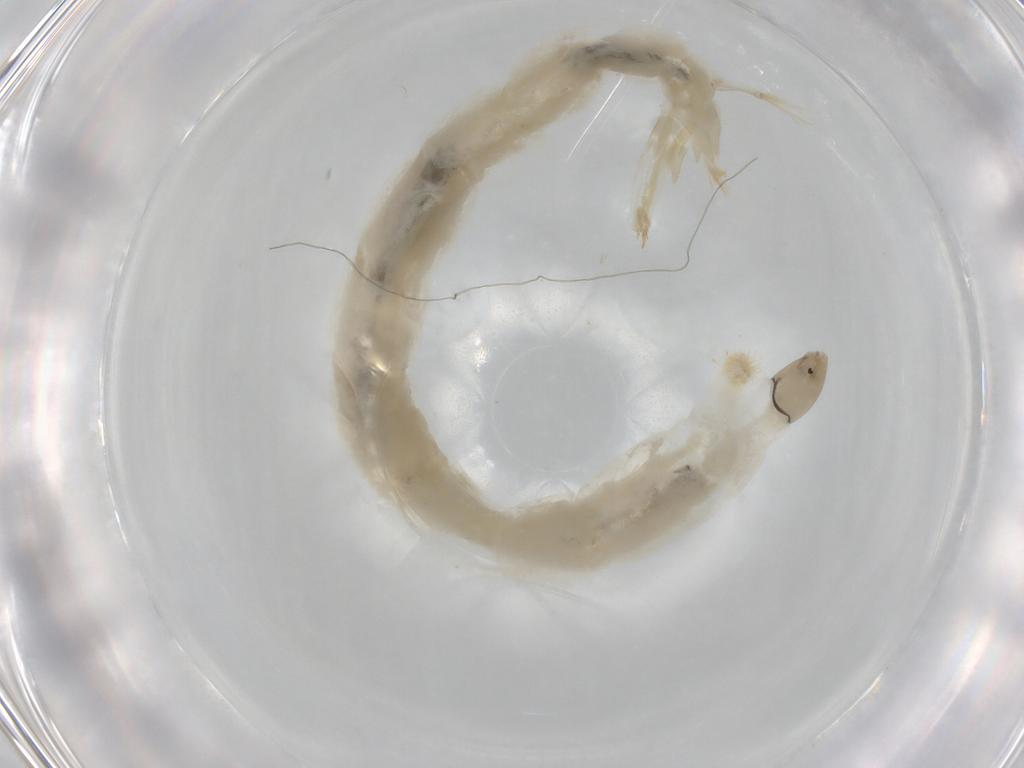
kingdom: Animalia
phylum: Arthropoda
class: Insecta
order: Diptera
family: Chironomidae
